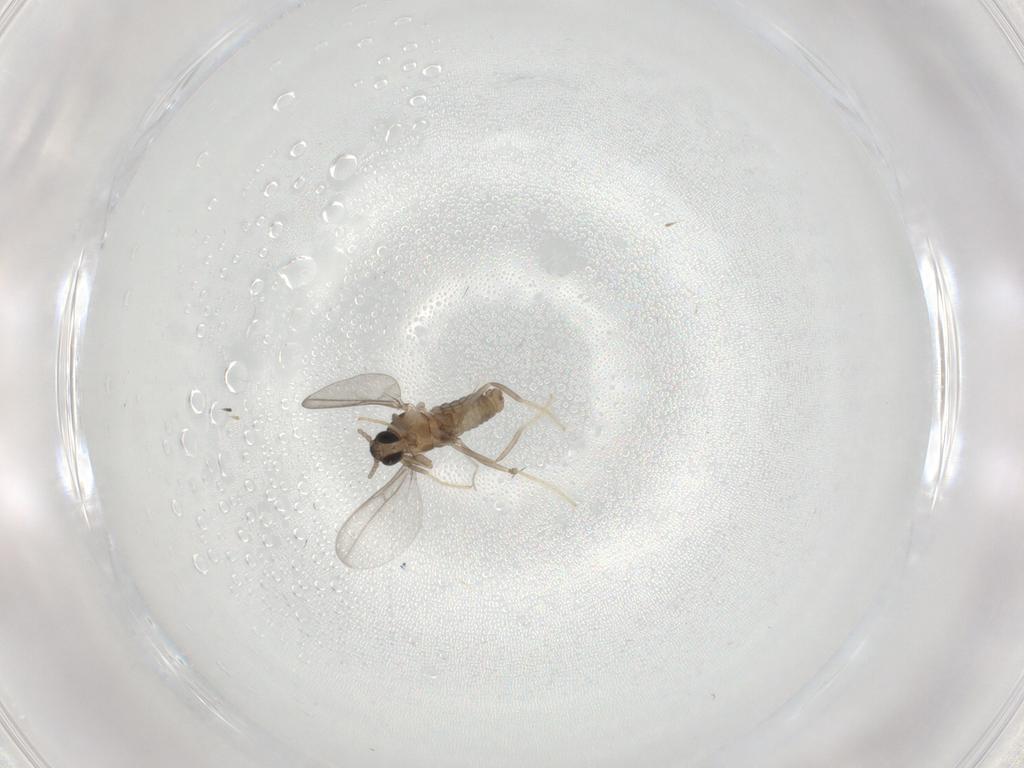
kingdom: Animalia
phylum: Arthropoda
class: Insecta
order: Diptera
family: Cecidomyiidae
